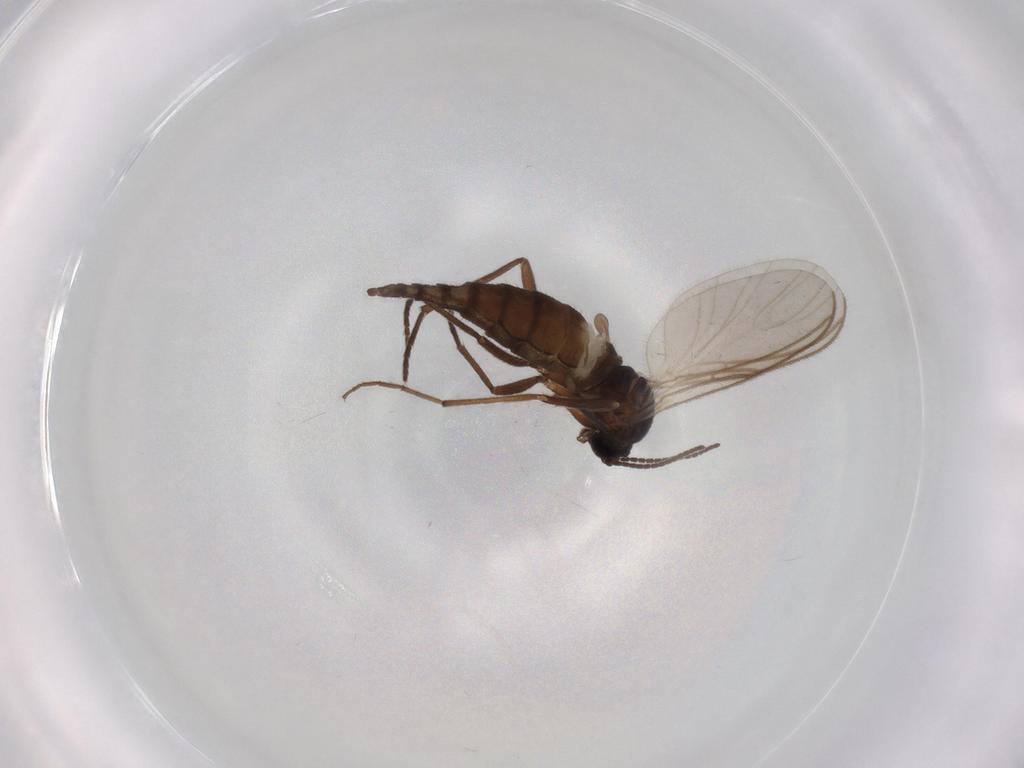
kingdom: Animalia
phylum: Arthropoda
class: Insecta
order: Diptera
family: Sciaridae
